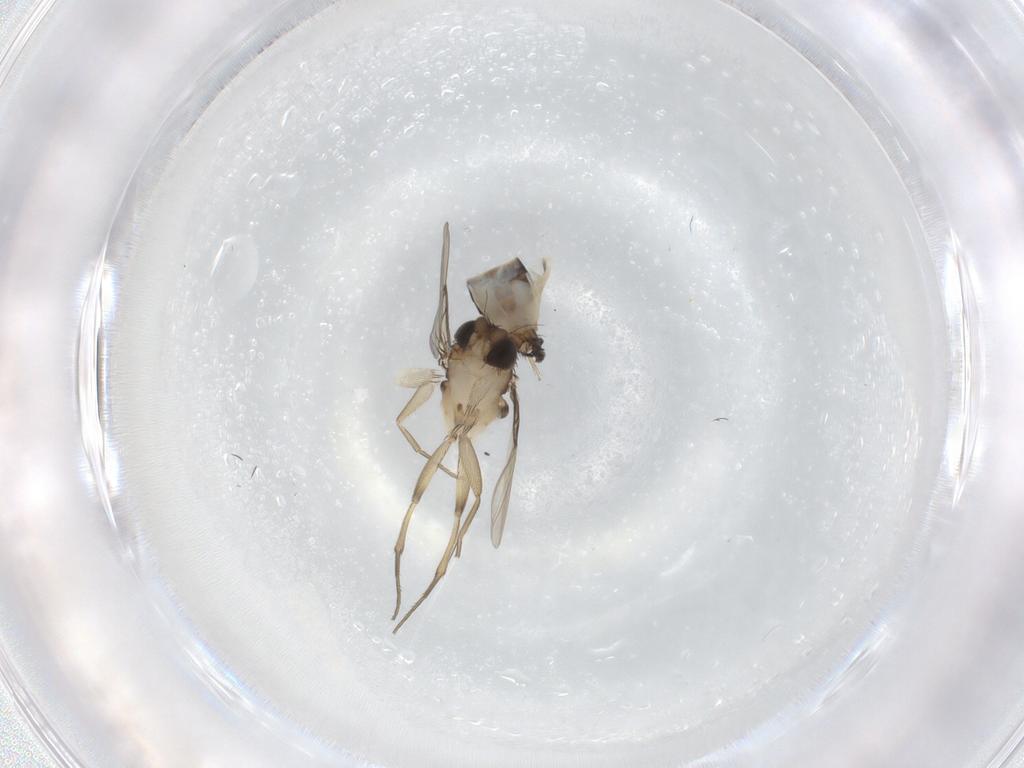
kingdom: Animalia
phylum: Arthropoda
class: Insecta
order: Diptera
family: Phoridae
